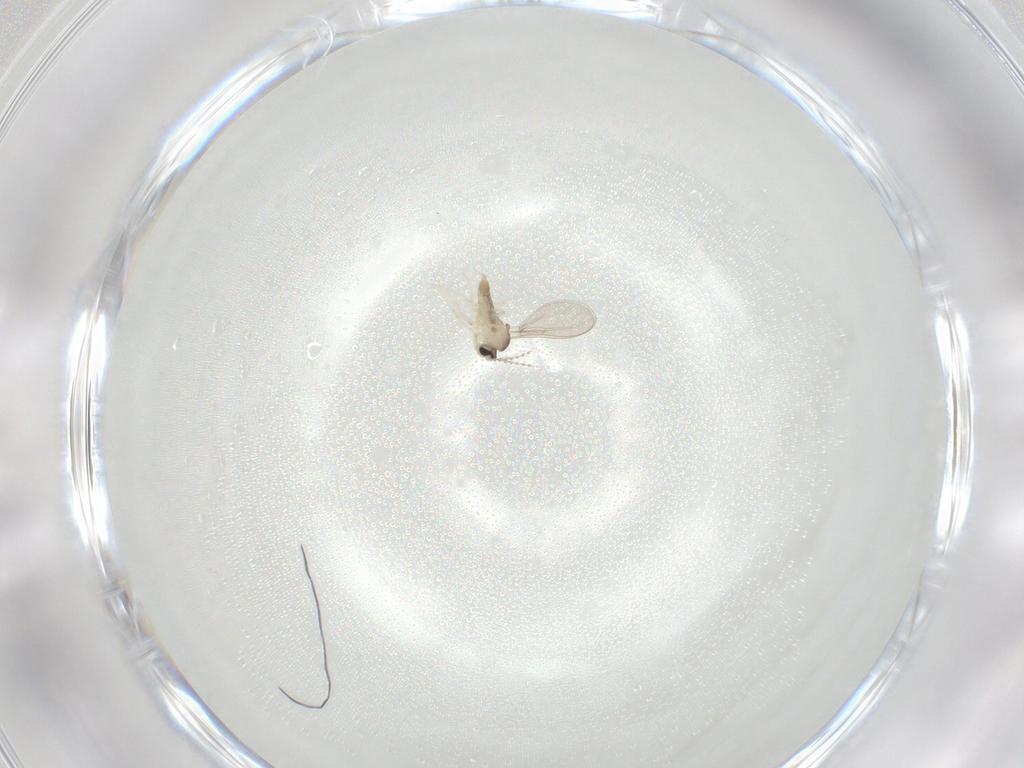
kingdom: Animalia
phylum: Arthropoda
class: Insecta
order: Diptera
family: Cecidomyiidae
